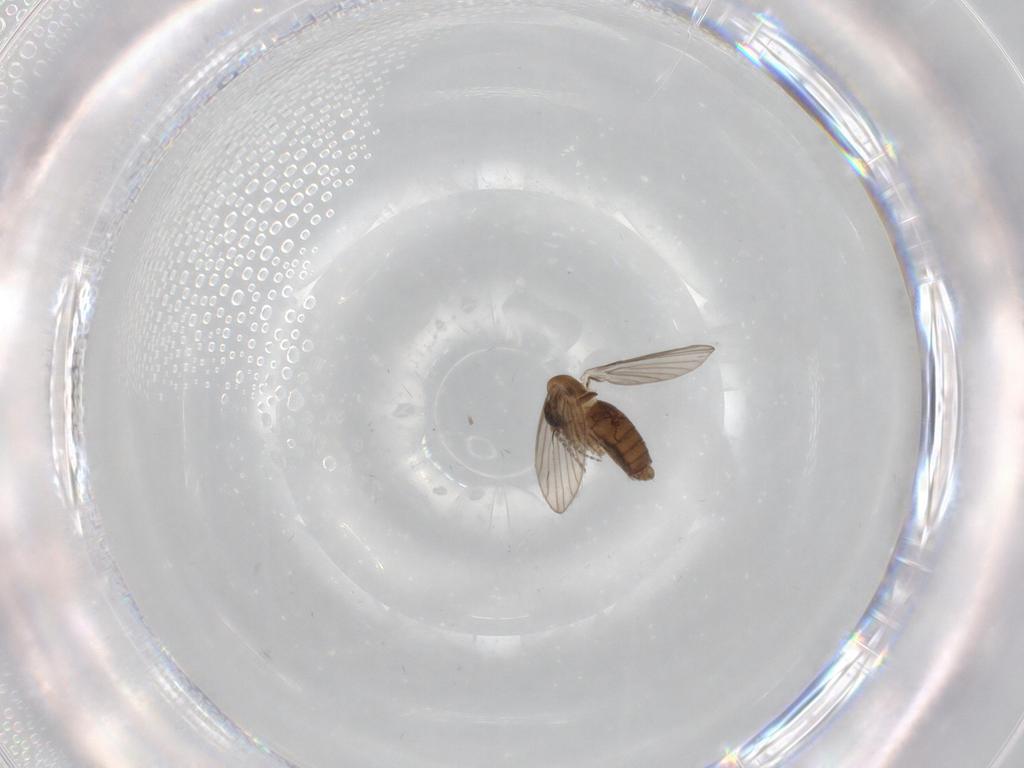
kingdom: Animalia
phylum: Arthropoda
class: Insecta
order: Diptera
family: Psychodidae
